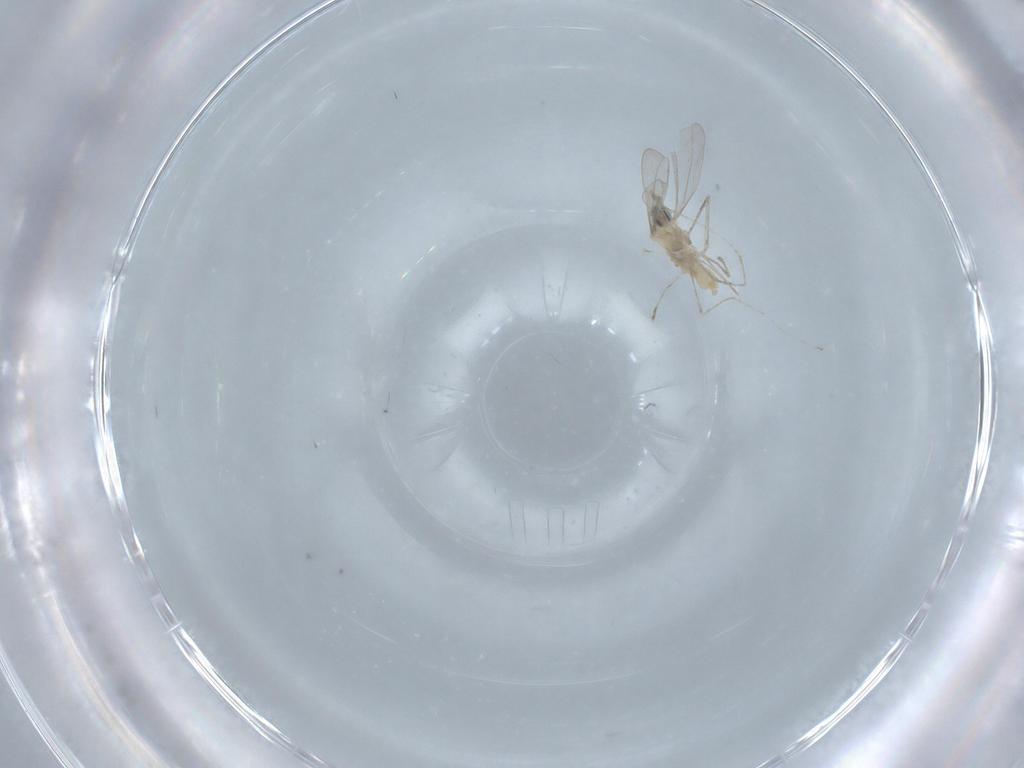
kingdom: Animalia
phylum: Arthropoda
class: Insecta
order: Diptera
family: Cecidomyiidae
